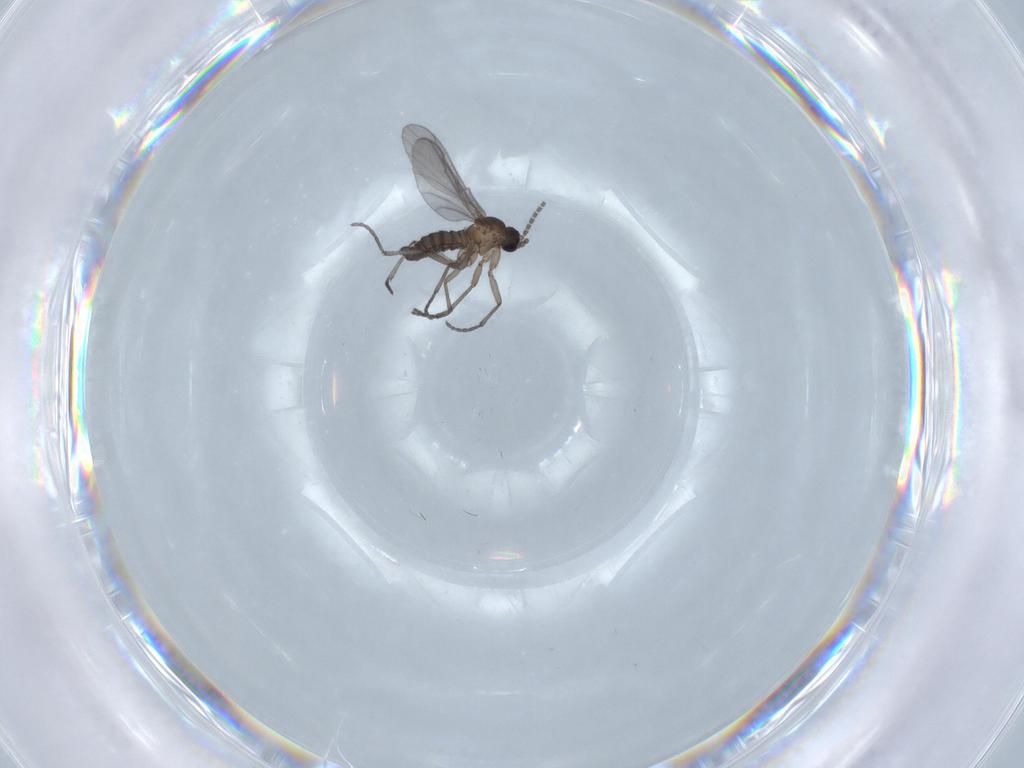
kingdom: Animalia
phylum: Arthropoda
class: Insecta
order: Diptera
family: Sciaridae
